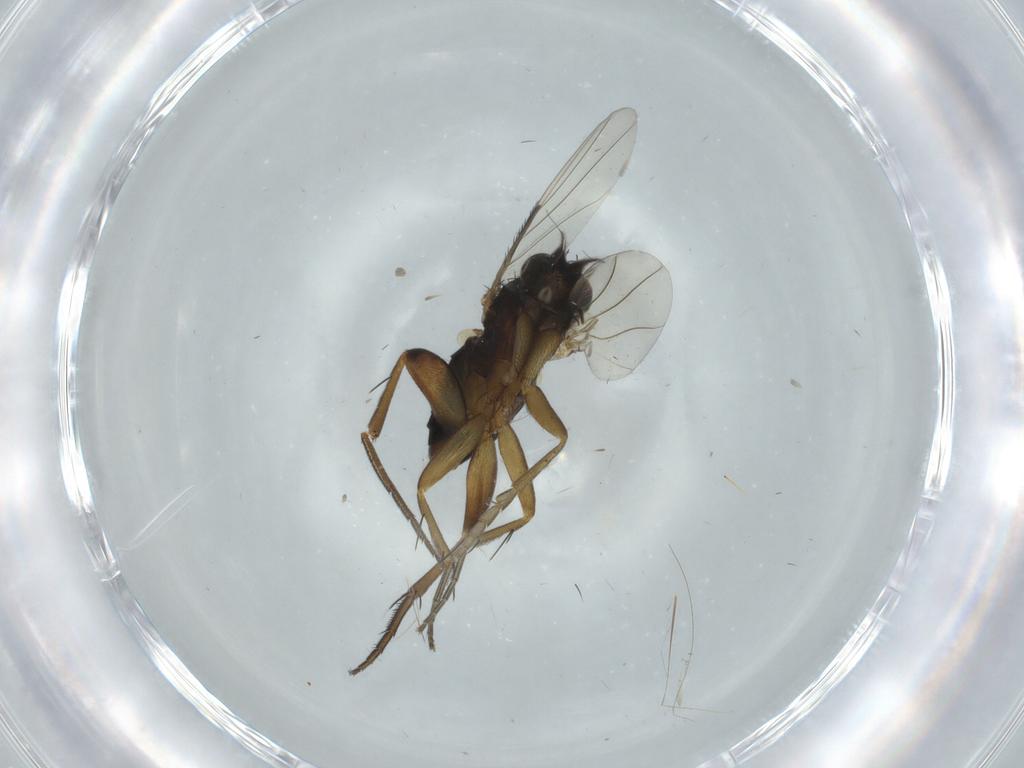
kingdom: Animalia
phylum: Arthropoda
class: Insecta
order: Diptera
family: Phoridae
